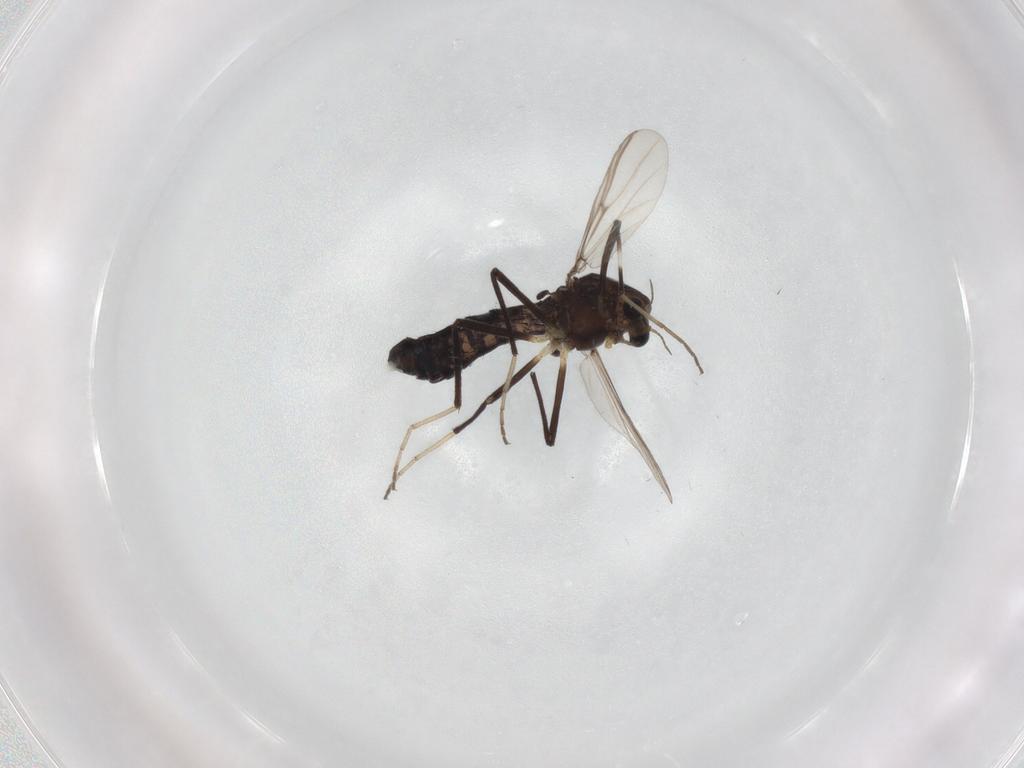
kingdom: Animalia
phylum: Arthropoda
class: Insecta
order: Diptera
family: Chironomidae
